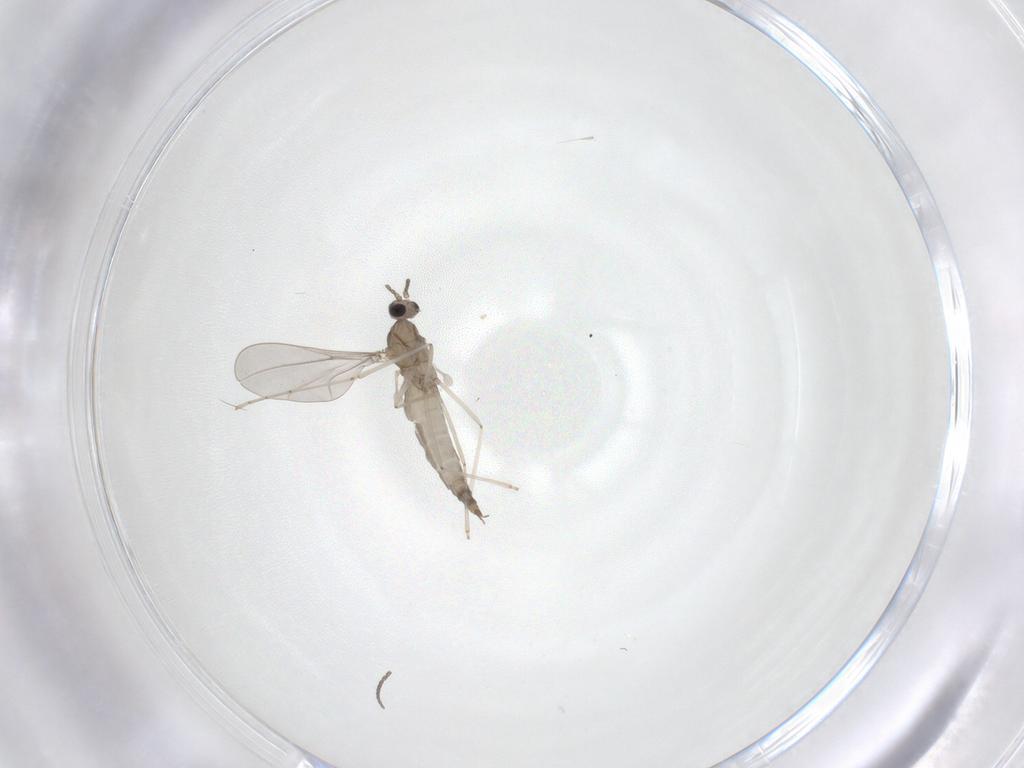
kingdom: Animalia
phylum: Arthropoda
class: Insecta
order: Diptera
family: Cecidomyiidae
